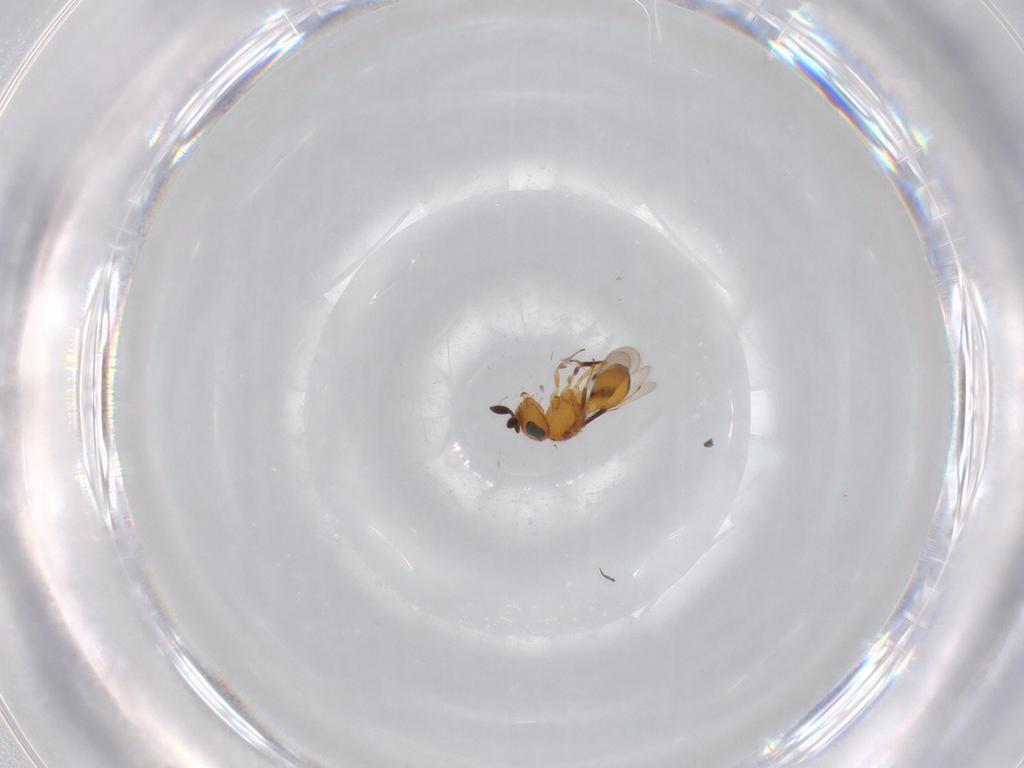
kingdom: Animalia
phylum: Arthropoda
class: Insecta
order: Hymenoptera
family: Scelionidae
